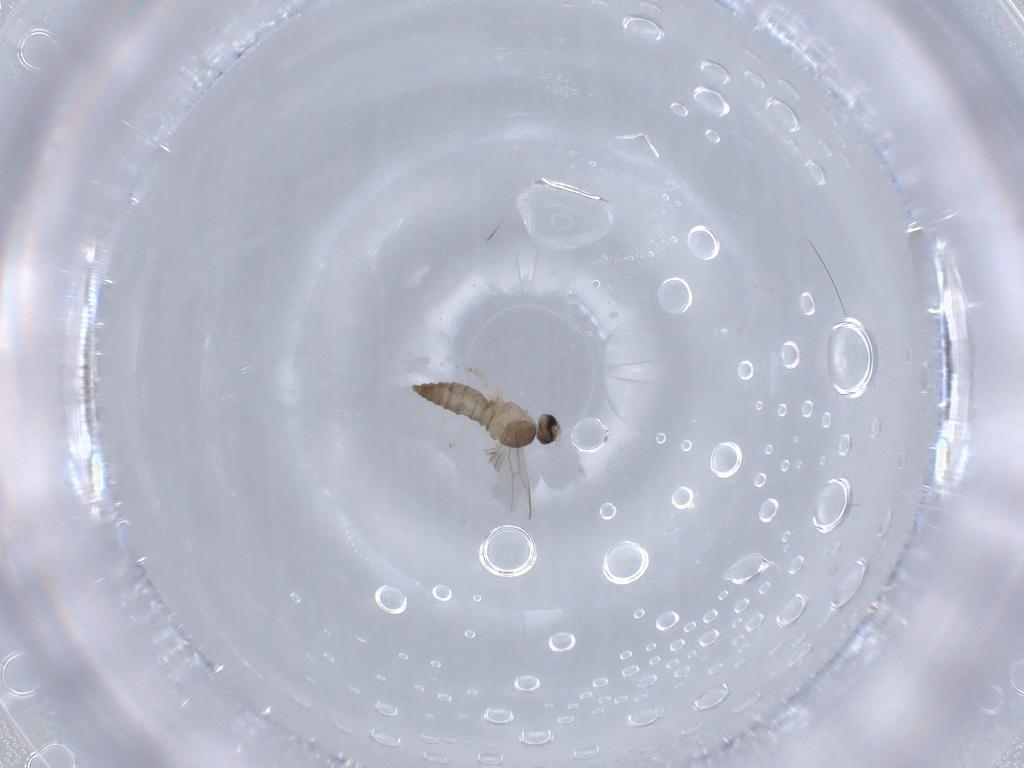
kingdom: Animalia
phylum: Arthropoda
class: Insecta
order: Diptera
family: Cecidomyiidae
